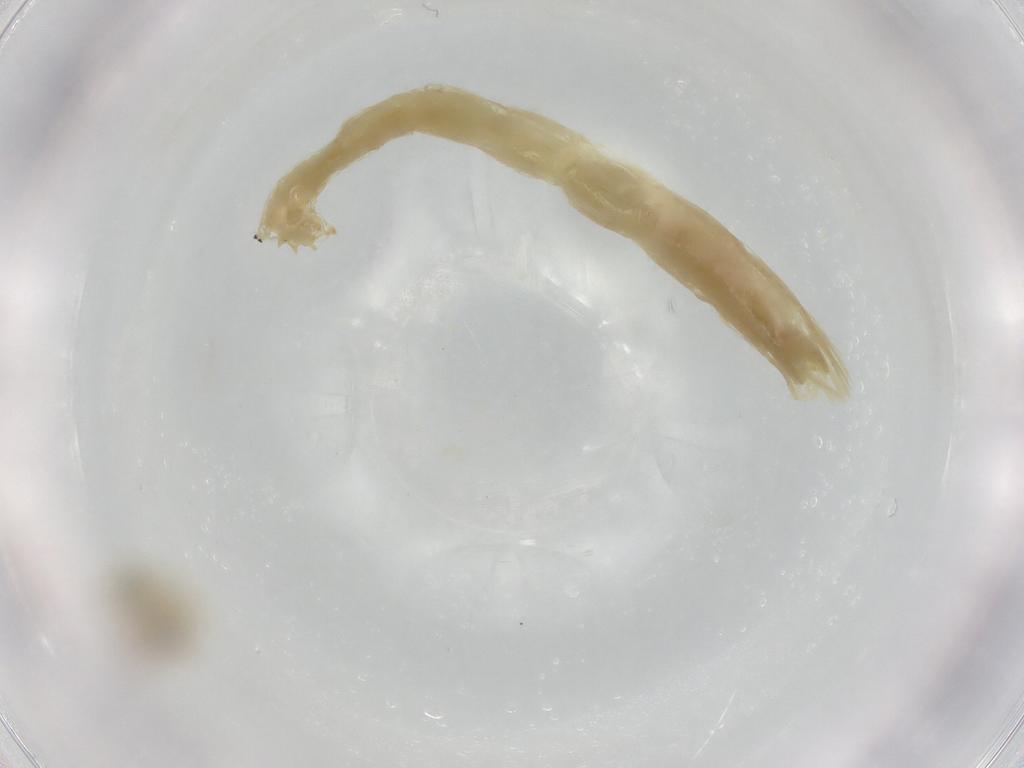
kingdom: Animalia
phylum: Arthropoda
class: Insecta
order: Diptera
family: Chironomidae
